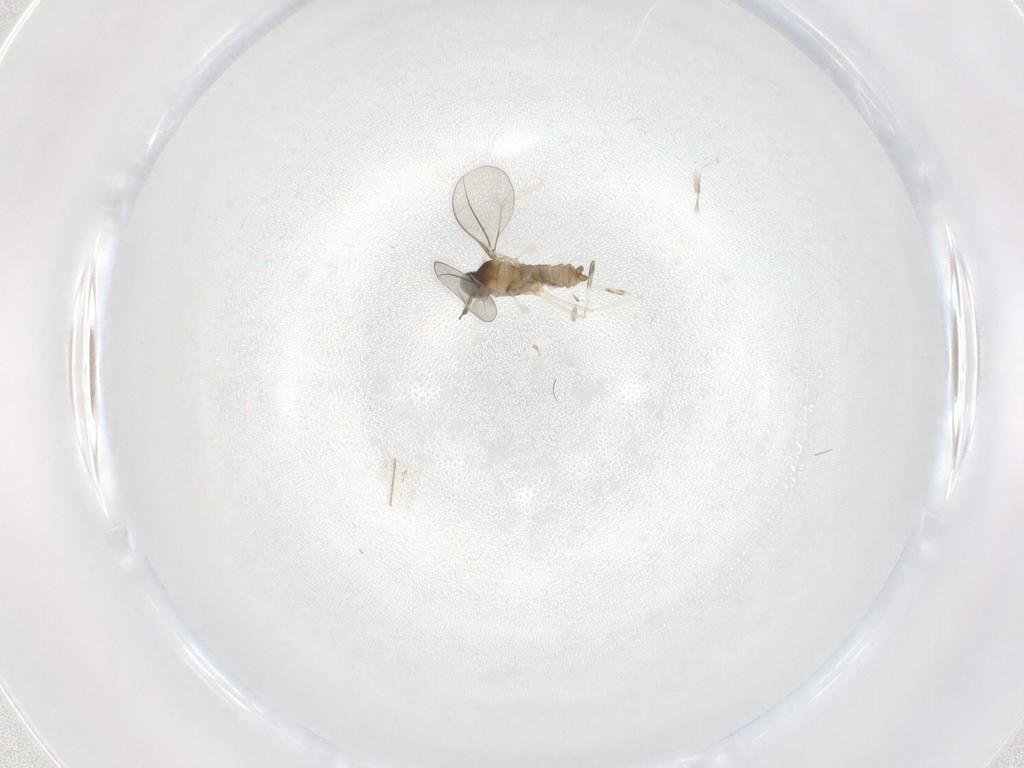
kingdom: Animalia
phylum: Arthropoda
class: Insecta
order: Diptera
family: Cecidomyiidae
